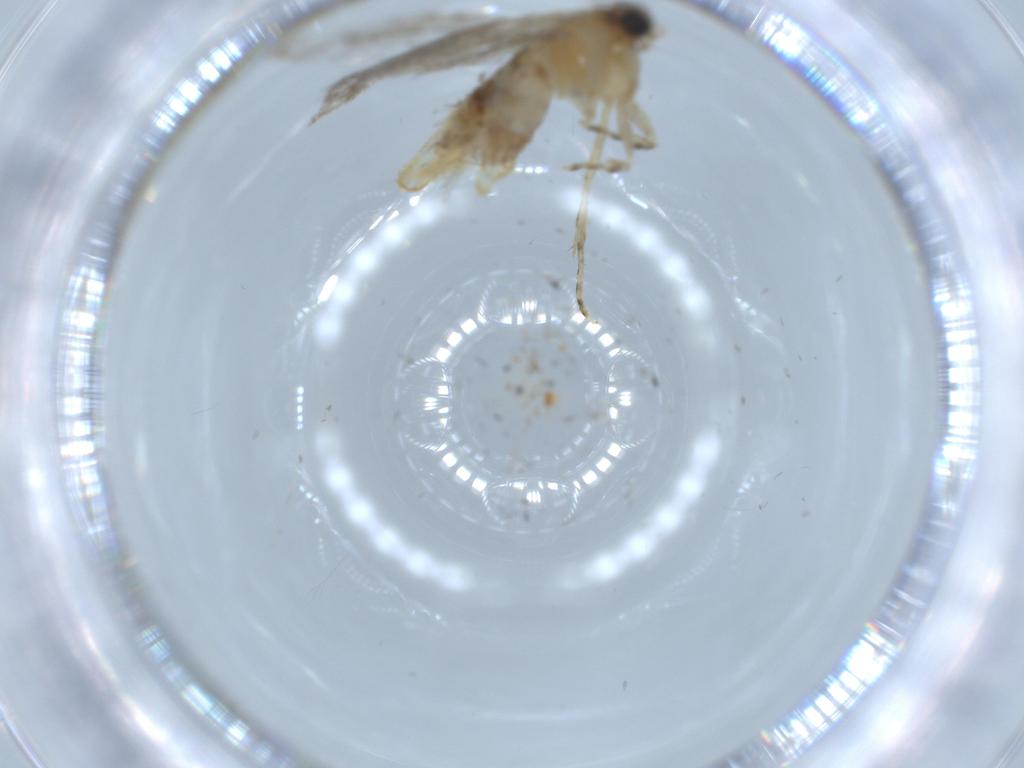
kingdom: Animalia
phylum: Arthropoda
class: Insecta
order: Lepidoptera
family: Tineidae
